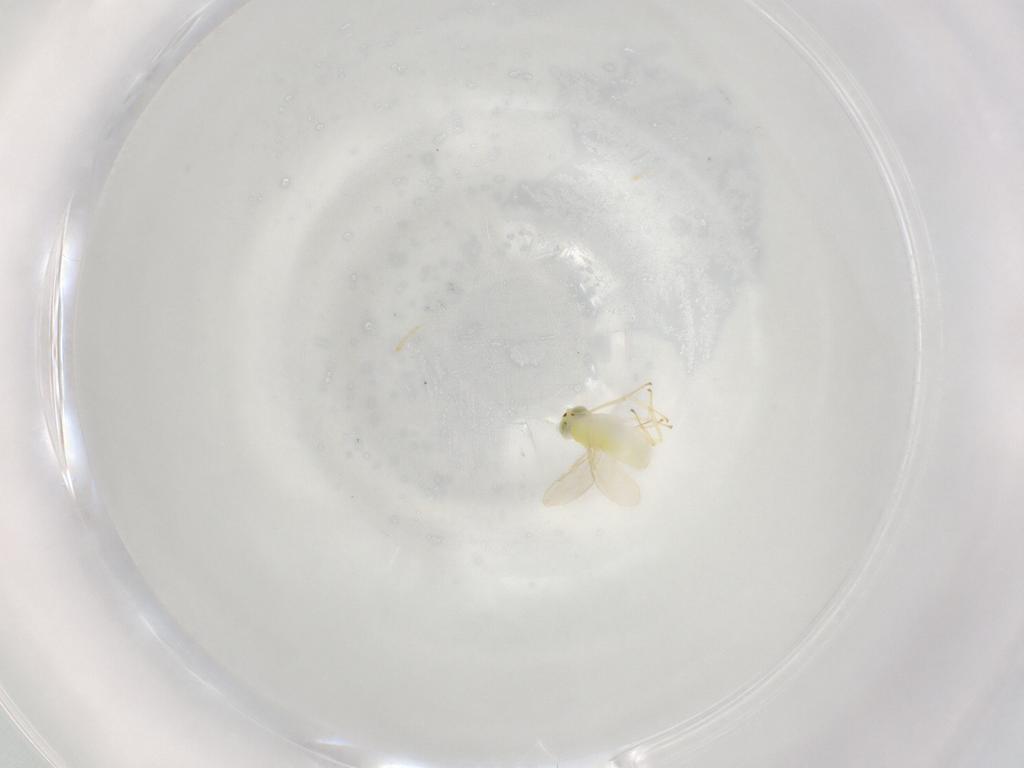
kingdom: Animalia
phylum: Arthropoda
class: Insecta
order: Hymenoptera
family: Aphelinidae
